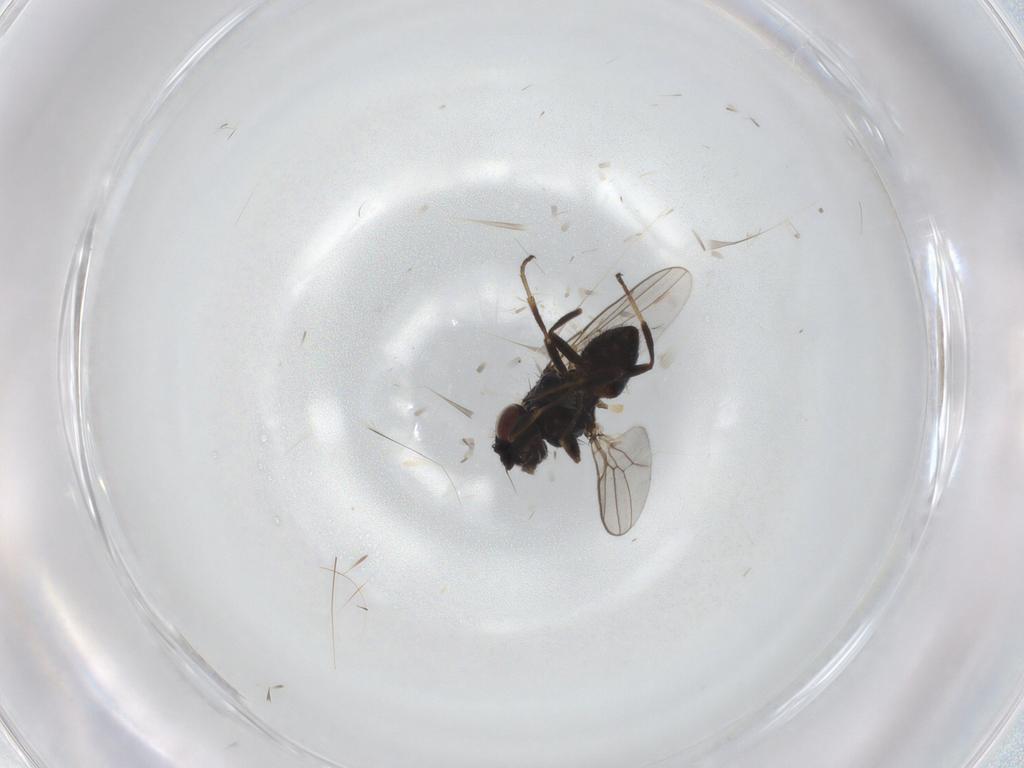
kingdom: Animalia
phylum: Arthropoda
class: Insecta
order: Diptera
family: Chloropidae
